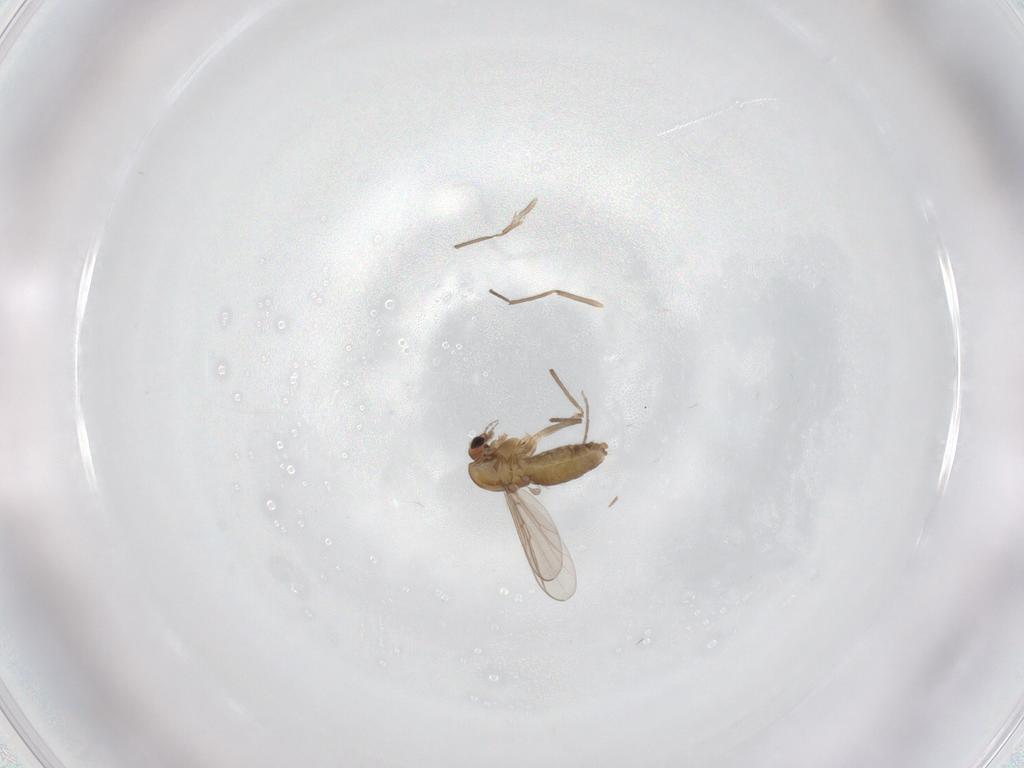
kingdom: Animalia
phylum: Arthropoda
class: Insecta
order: Diptera
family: Chironomidae
